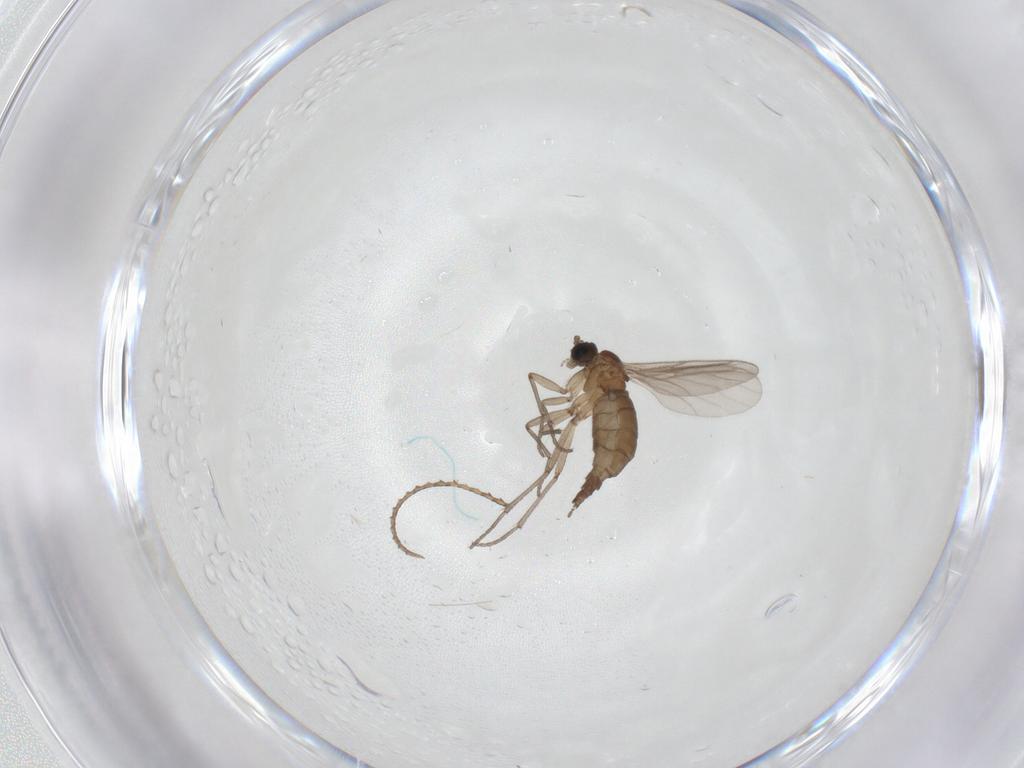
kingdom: Animalia
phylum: Arthropoda
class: Insecta
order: Diptera
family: Sciaridae
